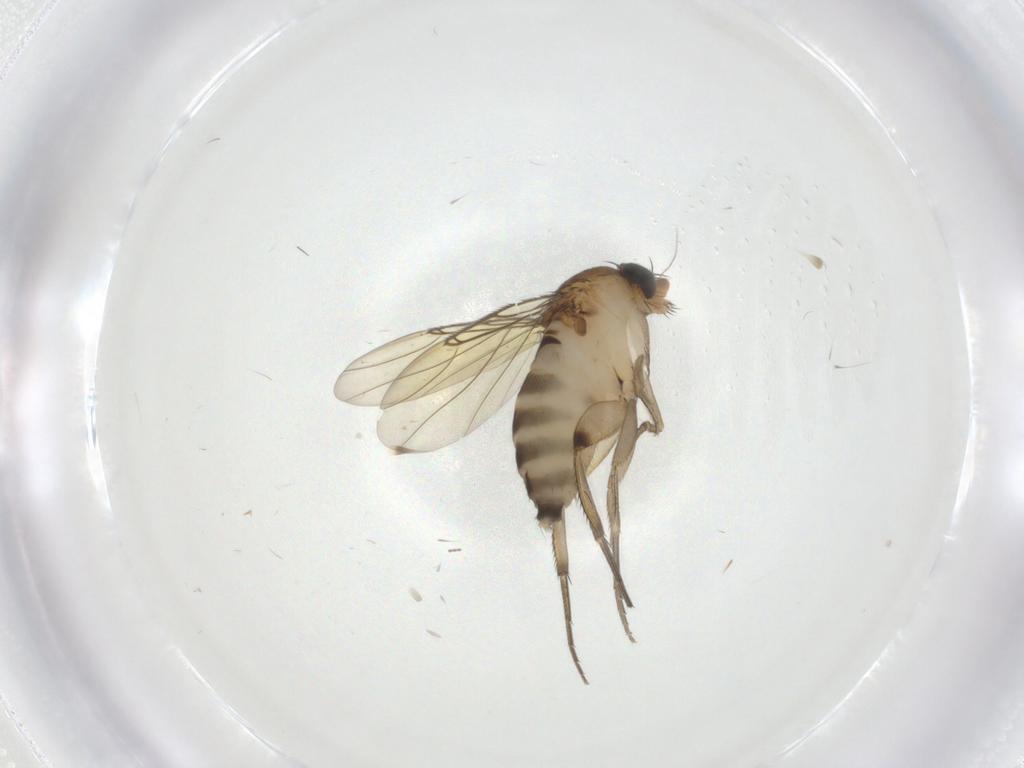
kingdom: Animalia
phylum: Arthropoda
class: Insecta
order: Diptera
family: Phoridae
